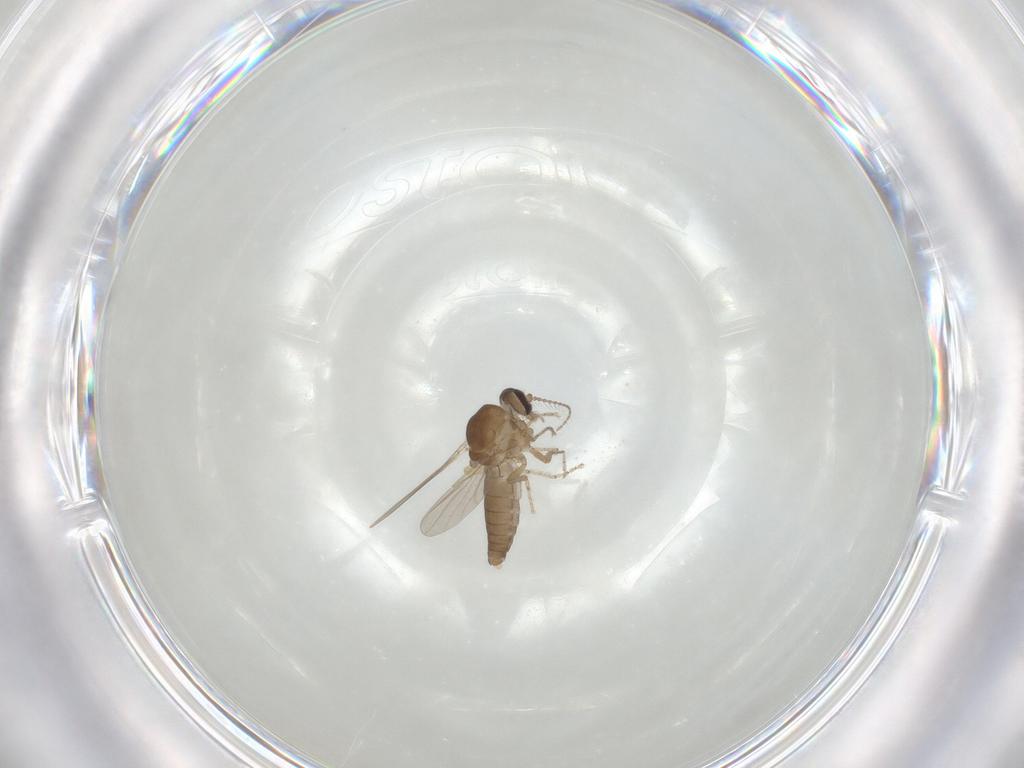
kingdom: Animalia
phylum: Arthropoda
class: Insecta
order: Diptera
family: Ceratopogonidae
